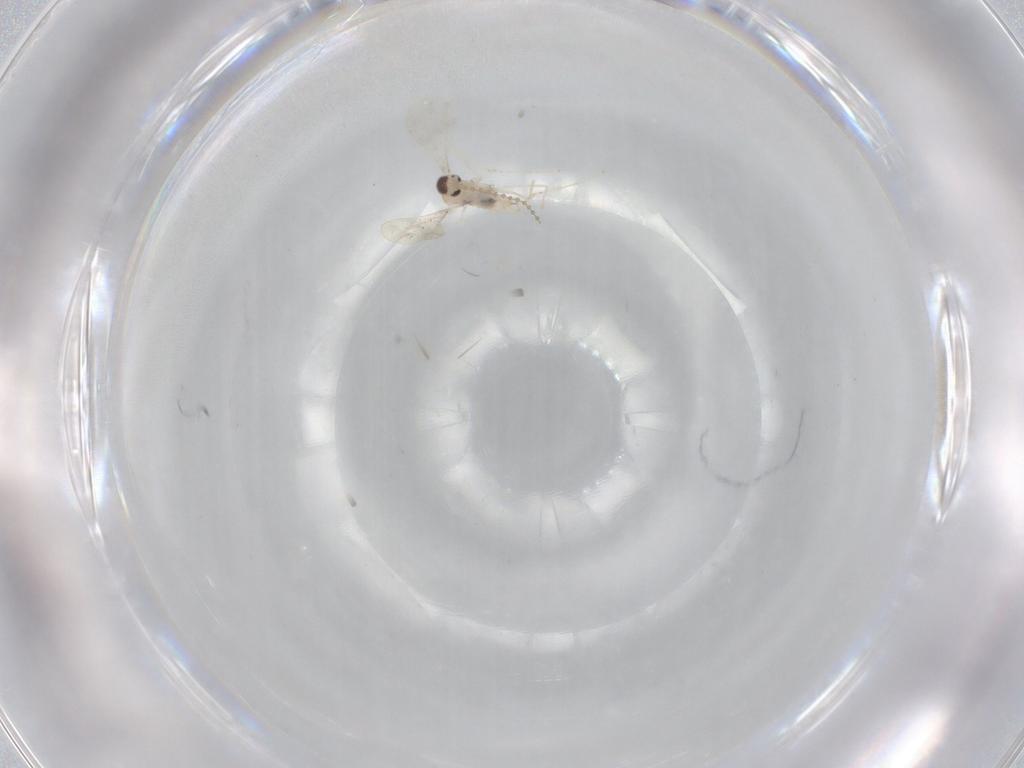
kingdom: Animalia
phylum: Arthropoda
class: Insecta
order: Diptera
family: Cecidomyiidae
